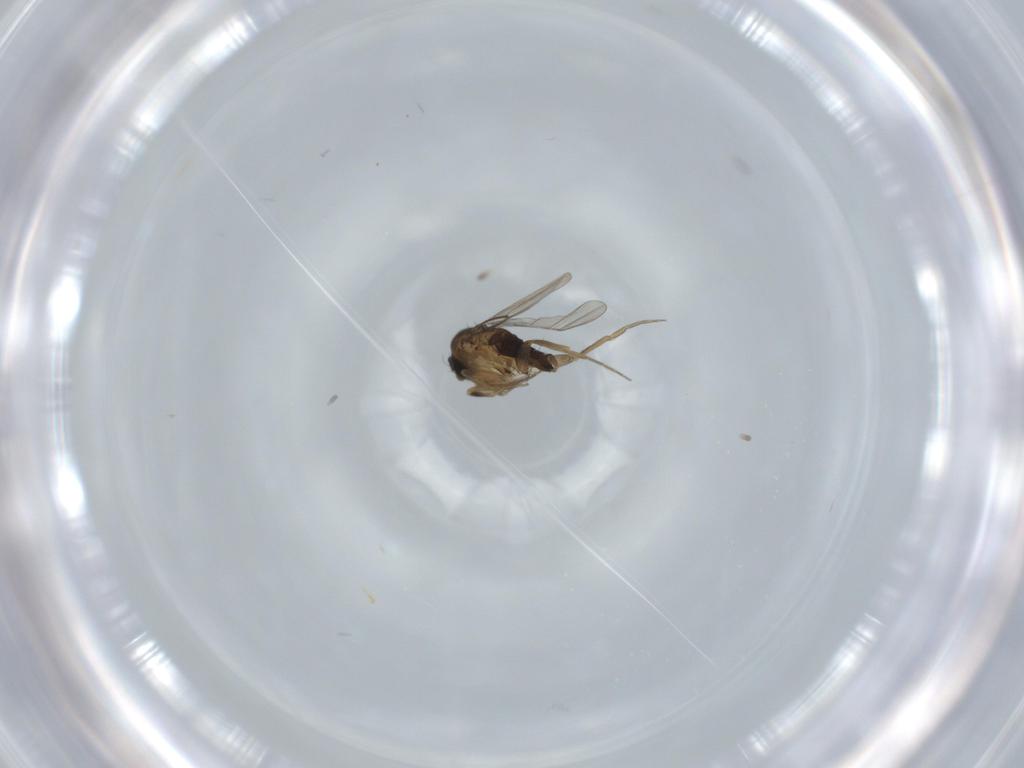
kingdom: Animalia
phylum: Arthropoda
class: Insecta
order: Diptera
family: Phoridae
